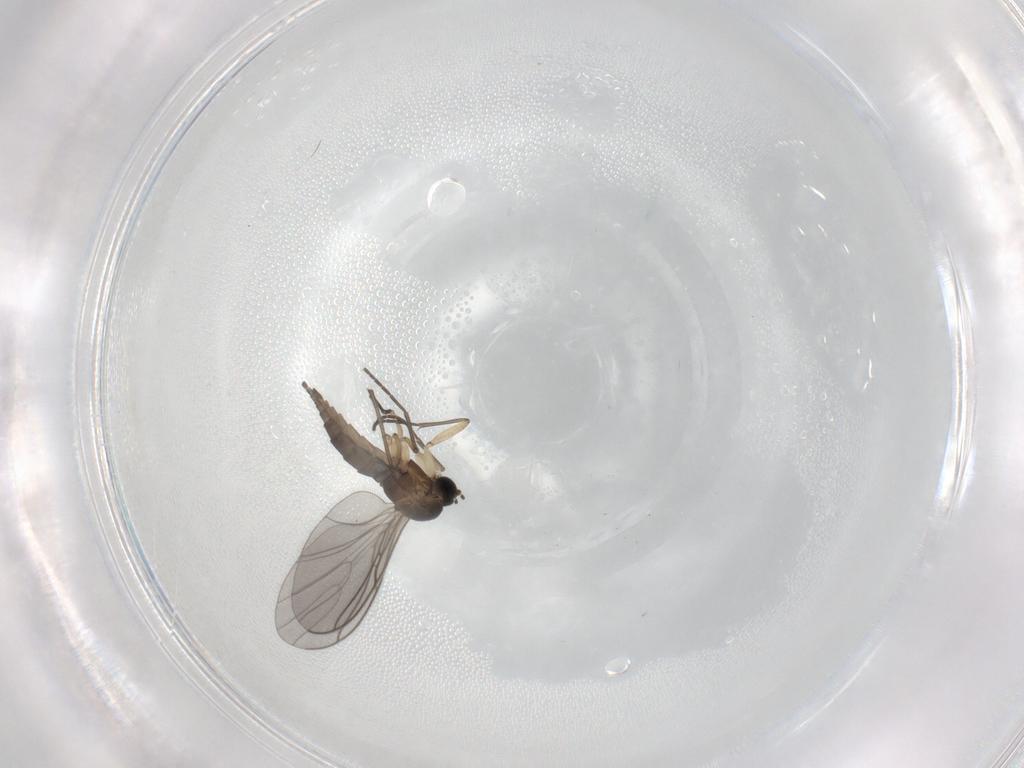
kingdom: Animalia
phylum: Arthropoda
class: Insecta
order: Diptera
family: Sciaridae
